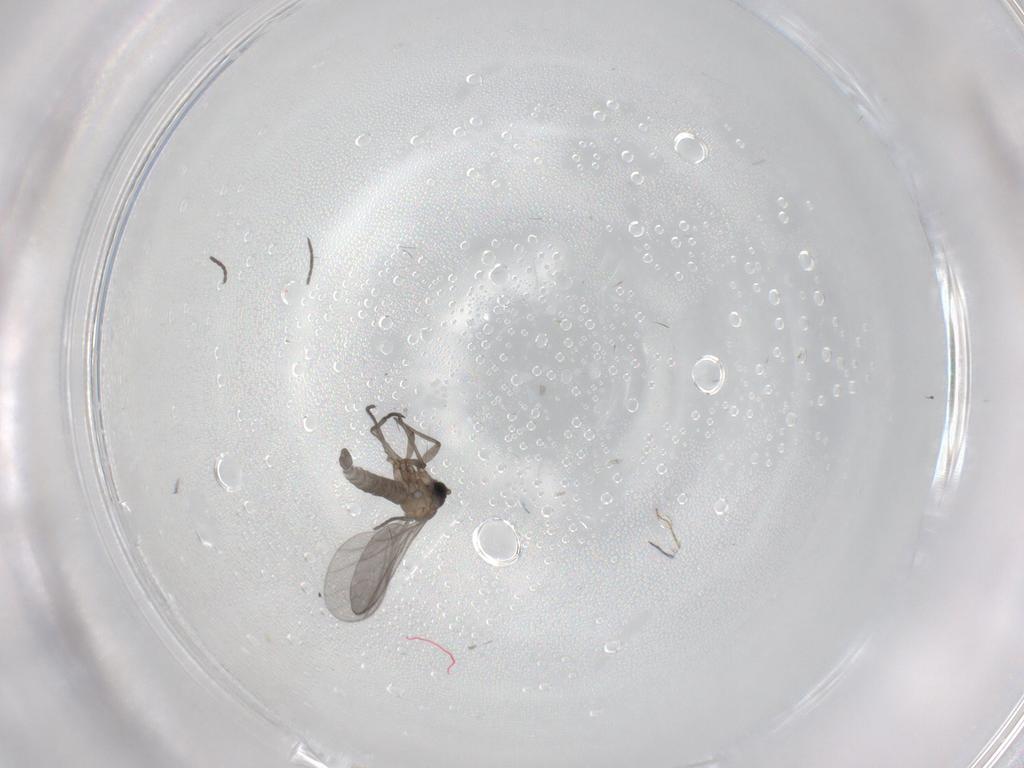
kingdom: Animalia
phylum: Arthropoda
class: Insecta
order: Diptera
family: Sciaridae
